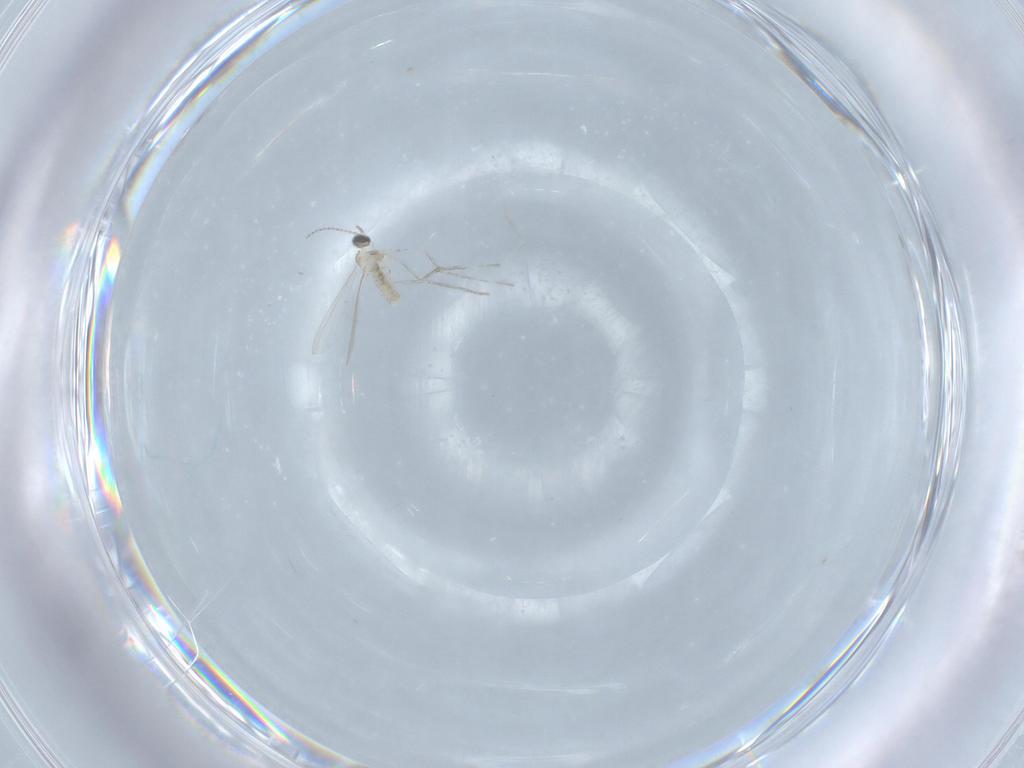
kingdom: Animalia
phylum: Arthropoda
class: Insecta
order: Diptera
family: Cecidomyiidae
